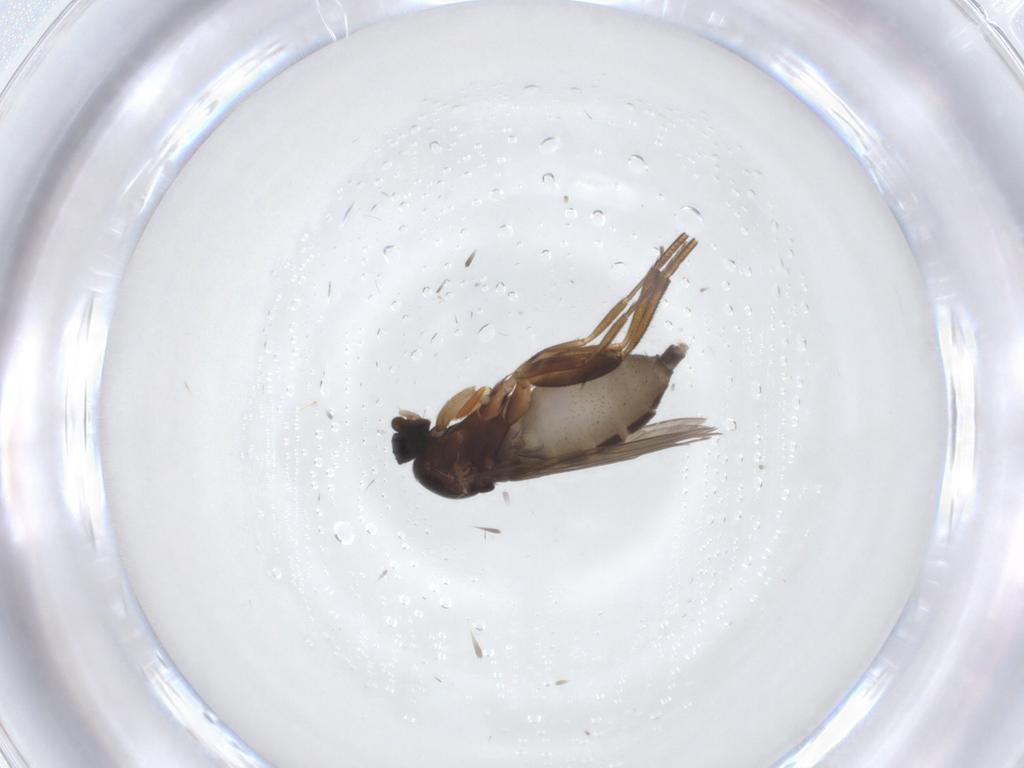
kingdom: Animalia
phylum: Arthropoda
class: Insecta
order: Diptera
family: Phoridae
